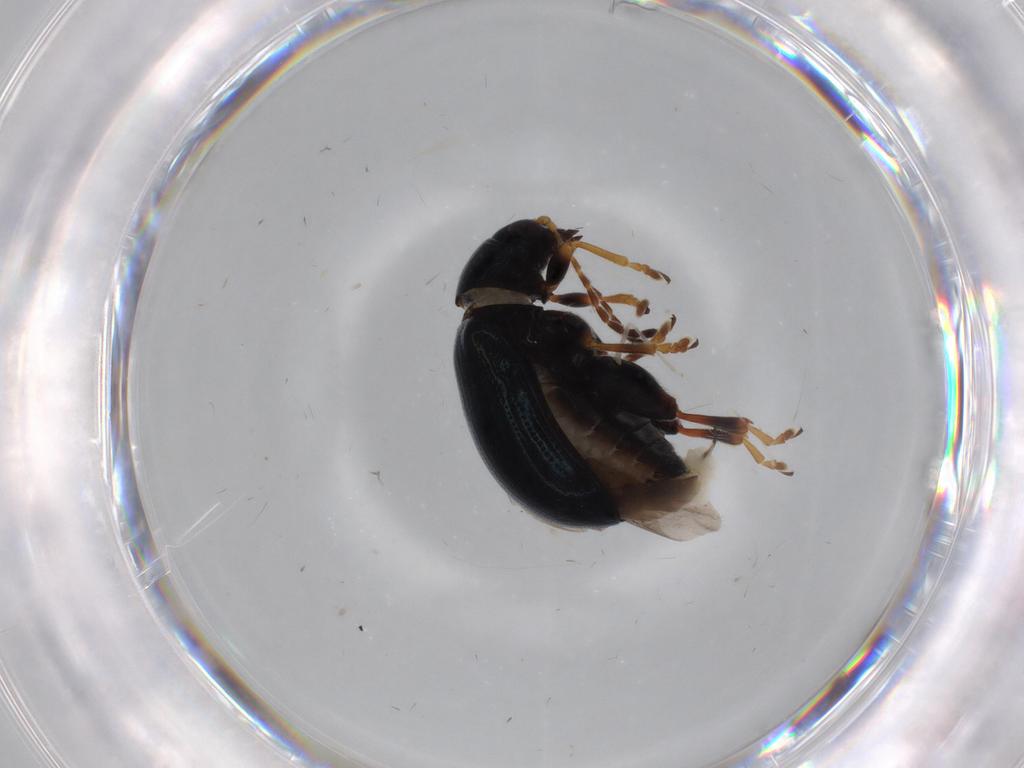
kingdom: Animalia
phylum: Arthropoda
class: Insecta
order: Coleoptera
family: Chrysomelidae
